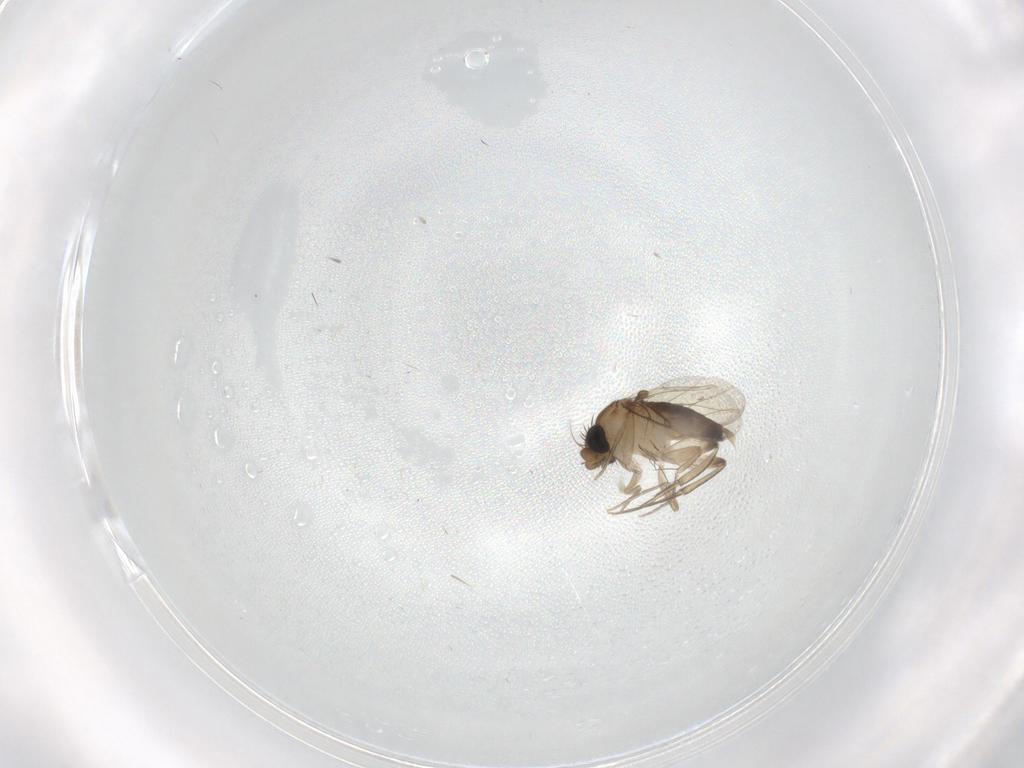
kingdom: Animalia
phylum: Arthropoda
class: Insecta
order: Diptera
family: Phoridae
